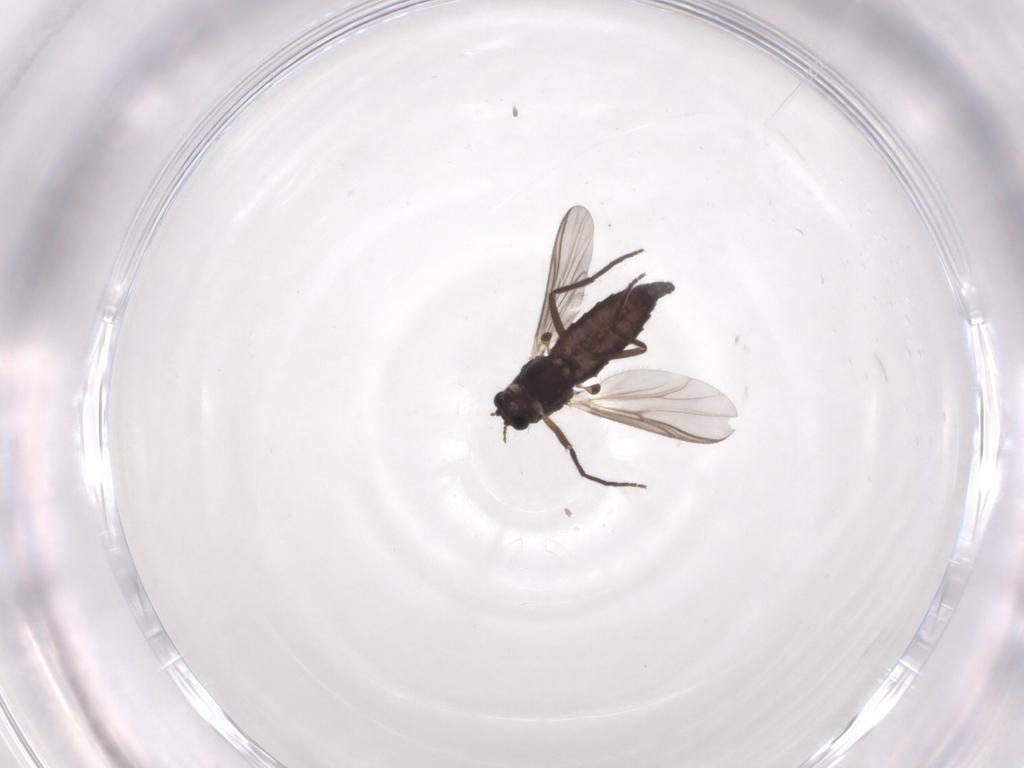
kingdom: Animalia
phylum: Arthropoda
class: Insecta
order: Diptera
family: Chironomidae
